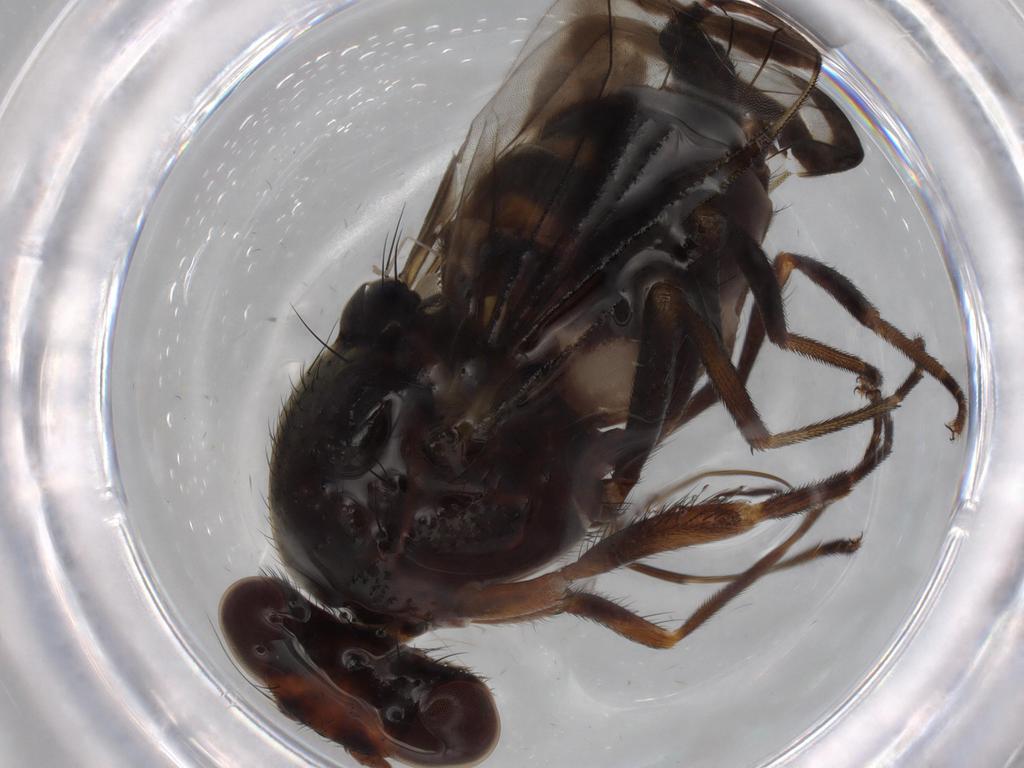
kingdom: Animalia
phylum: Arthropoda
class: Insecta
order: Diptera
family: Ulidiidae
